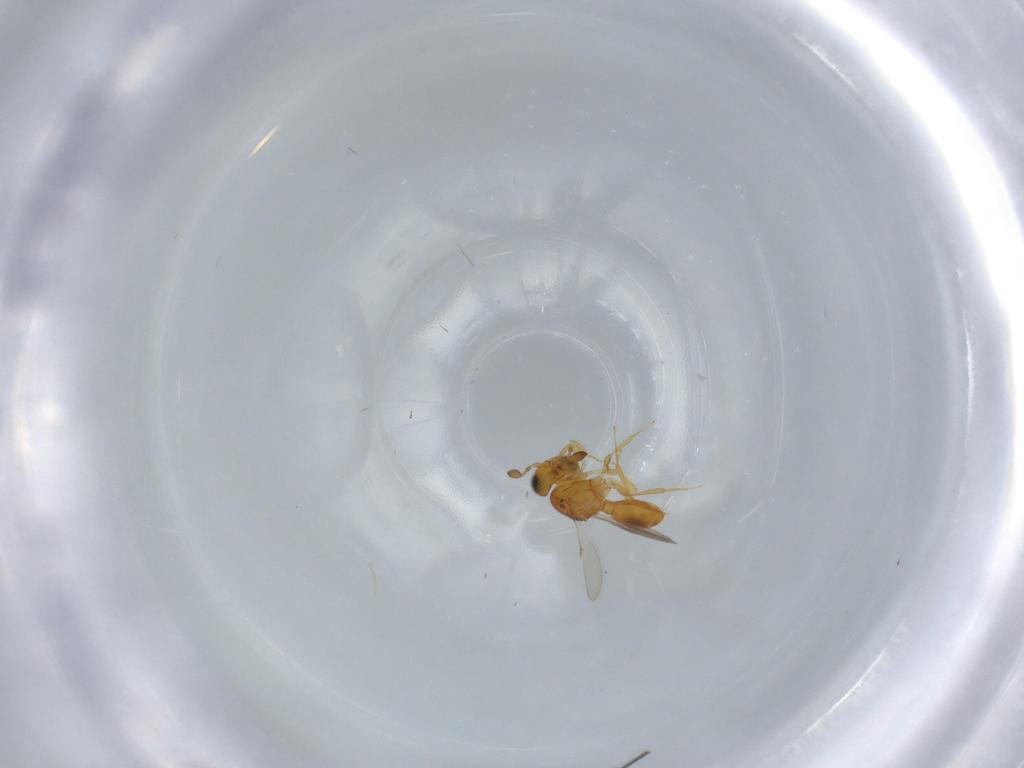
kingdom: Animalia
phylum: Arthropoda
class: Insecta
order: Hymenoptera
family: Scelionidae
